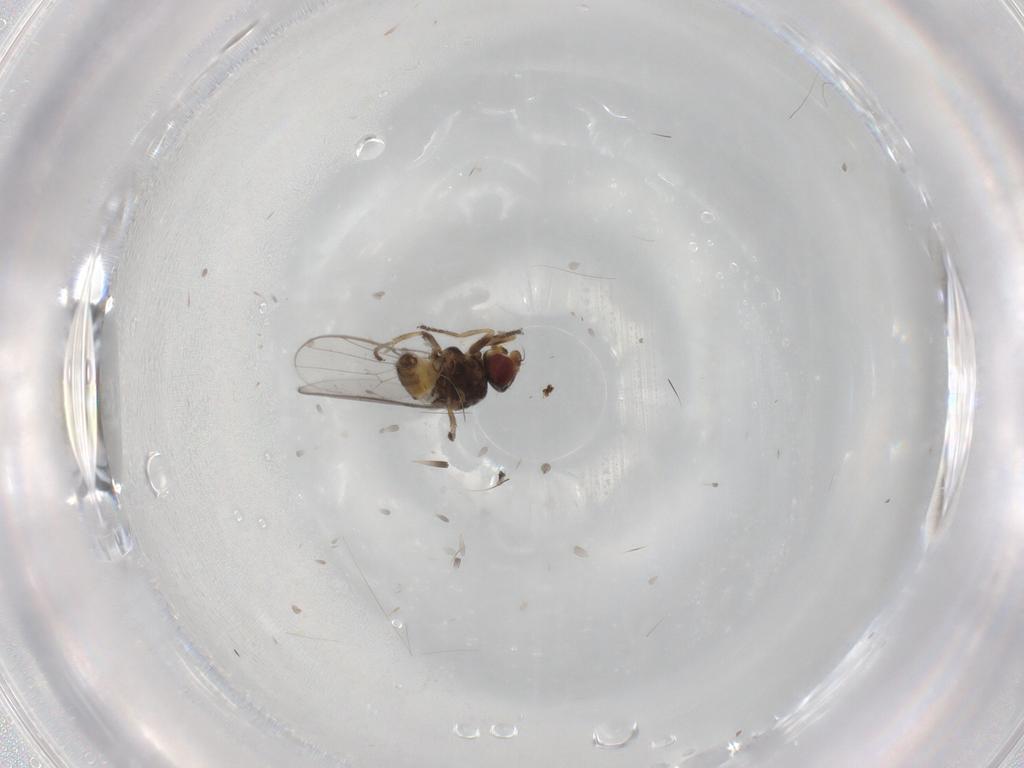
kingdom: Animalia
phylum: Arthropoda
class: Insecta
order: Diptera
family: Chloropidae
